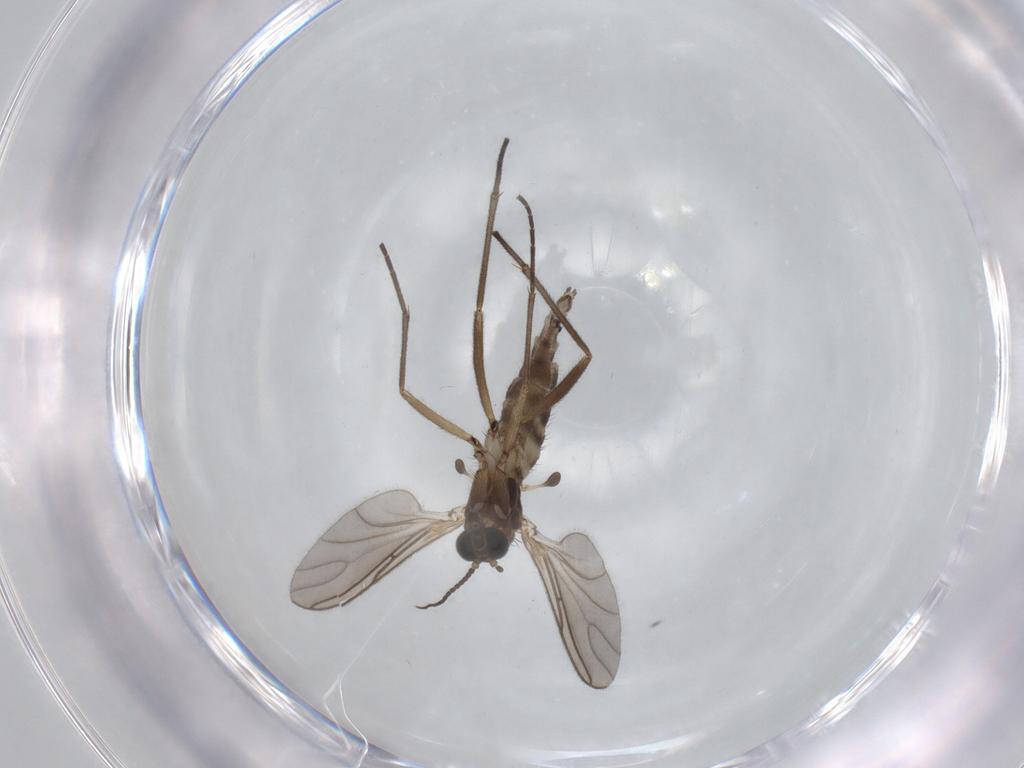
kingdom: Animalia
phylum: Arthropoda
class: Insecta
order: Diptera
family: Sciaridae
